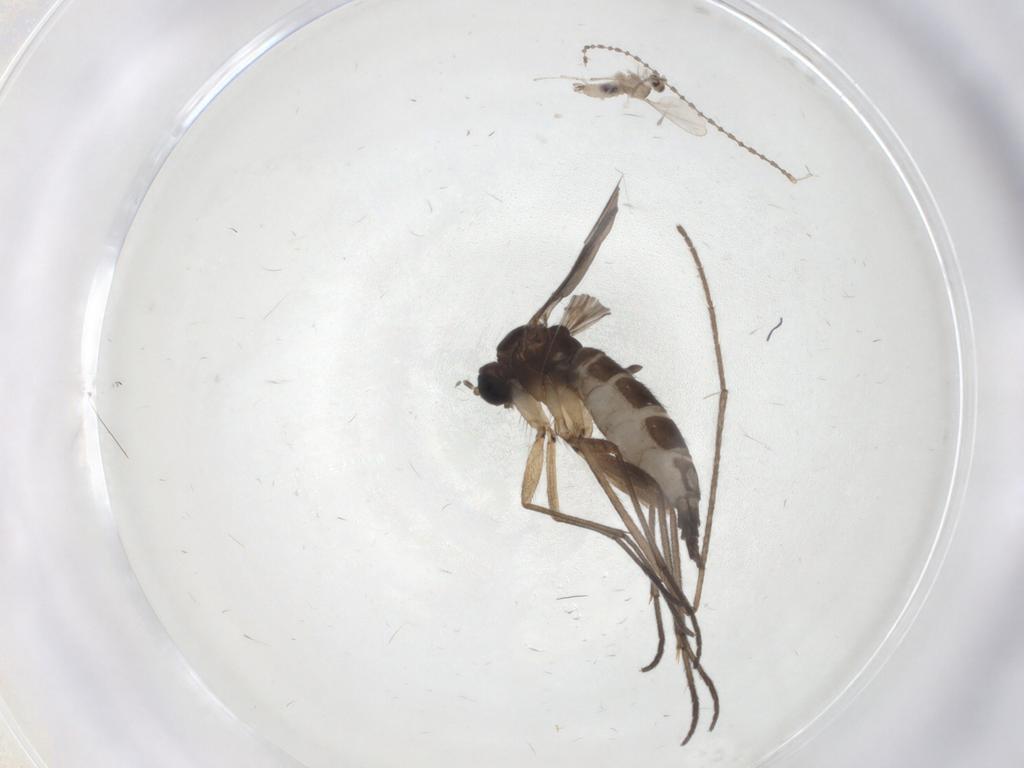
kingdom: Animalia
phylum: Arthropoda
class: Insecta
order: Diptera
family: Sciaridae
